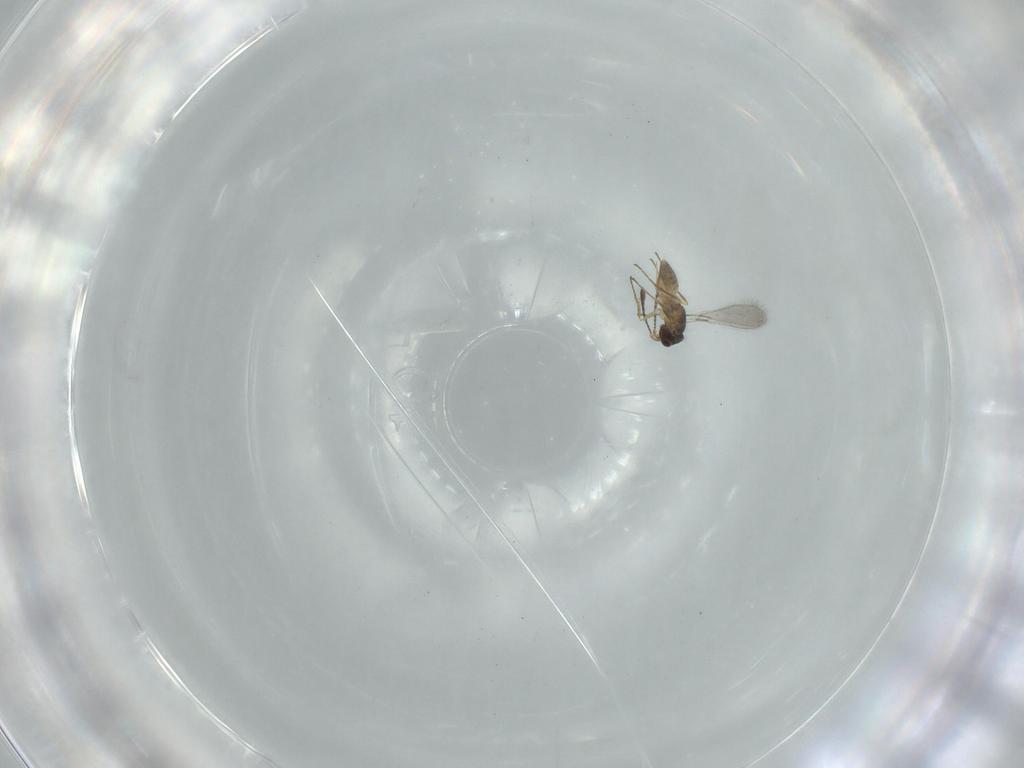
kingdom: Animalia
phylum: Arthropoda
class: Insecta
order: Hymenoptera
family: Mymaridae
